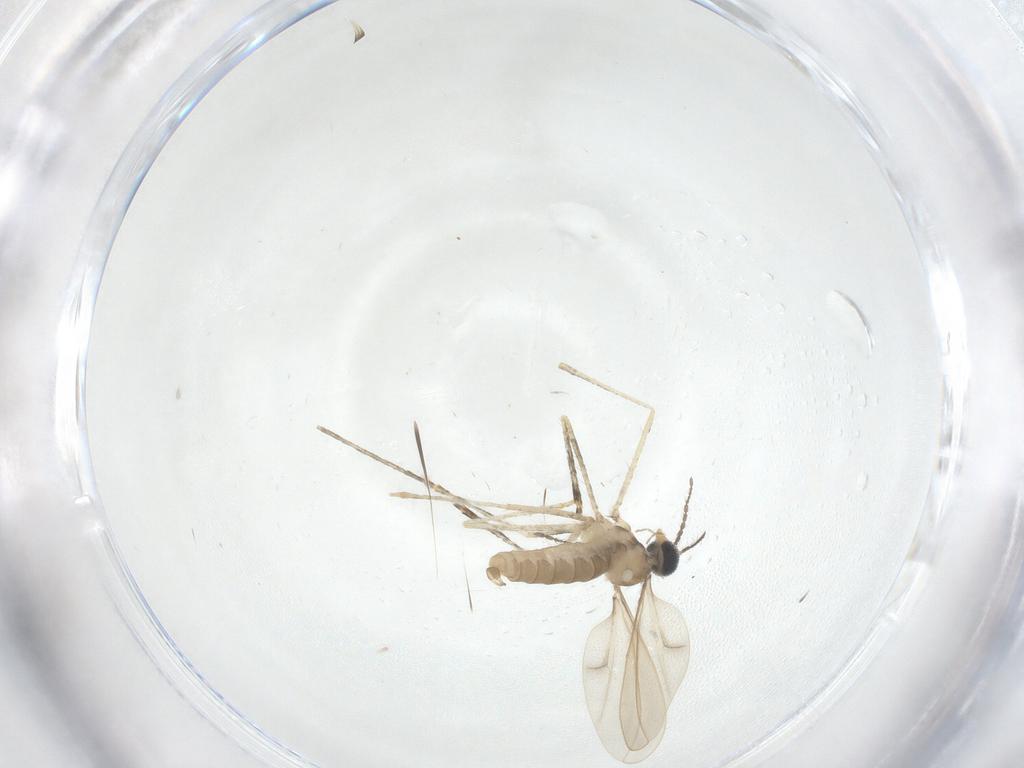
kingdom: Animalia
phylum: Arthropoda
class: Insecta
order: Diptera
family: Cecidomyiidae
